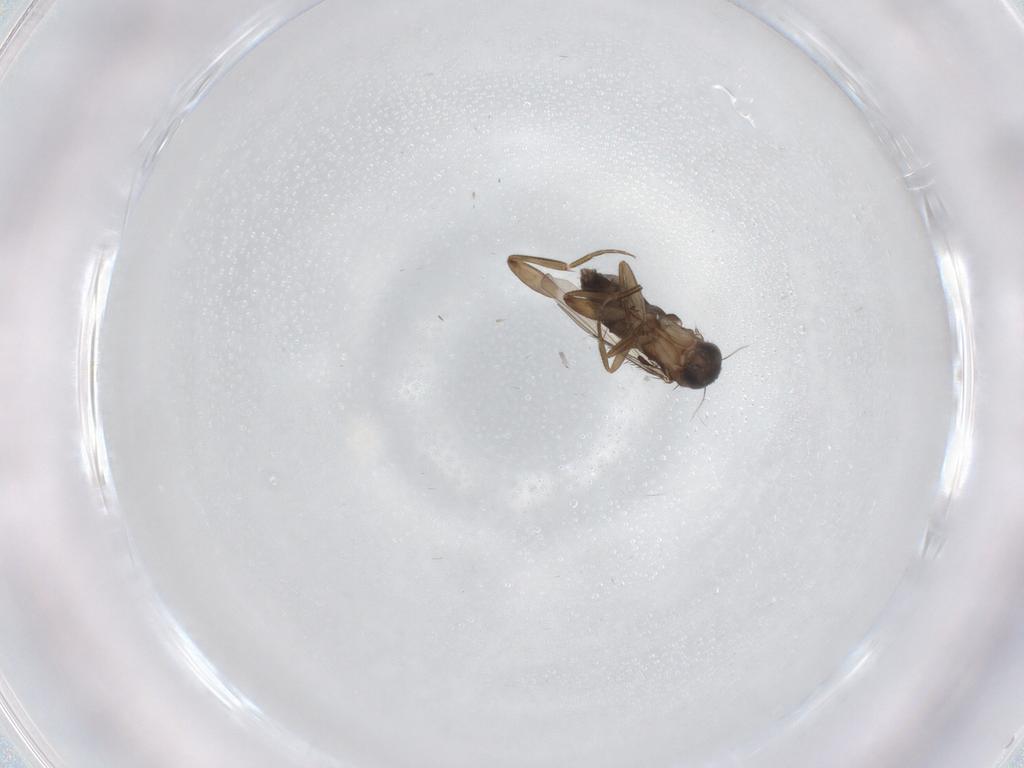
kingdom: Animalia
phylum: Arthropoda
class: Insecta
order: Diptera
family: Phoridae
